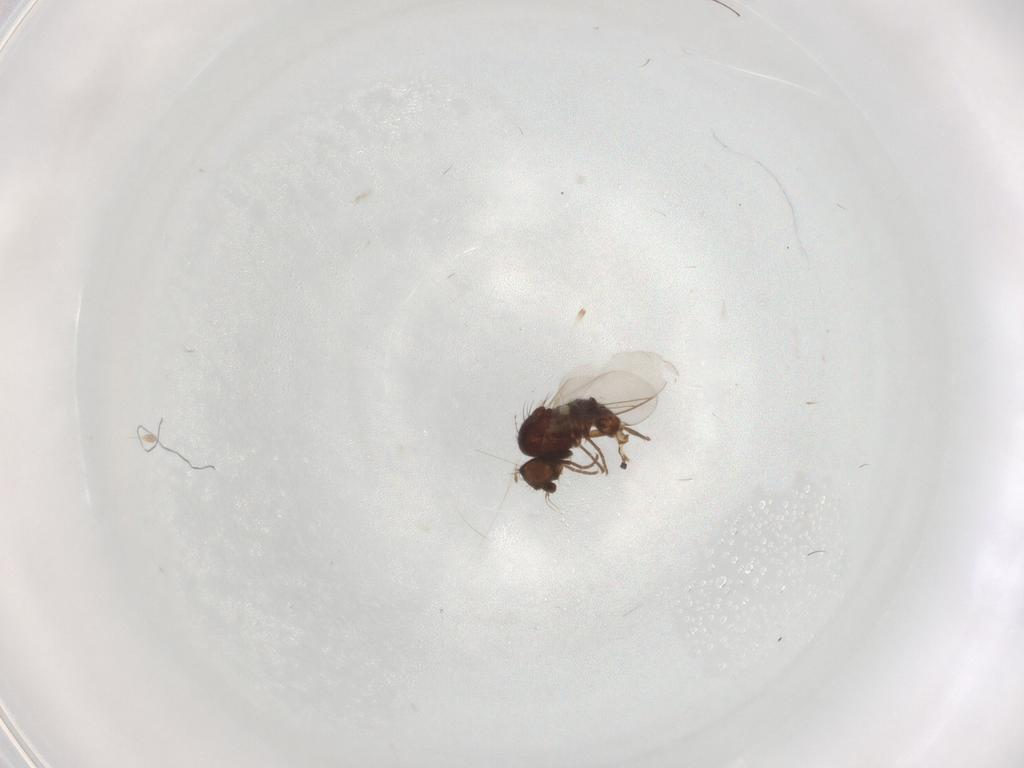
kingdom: Animalia
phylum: Arthropoda
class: Insecta
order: Diptera
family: Agromyzidae
